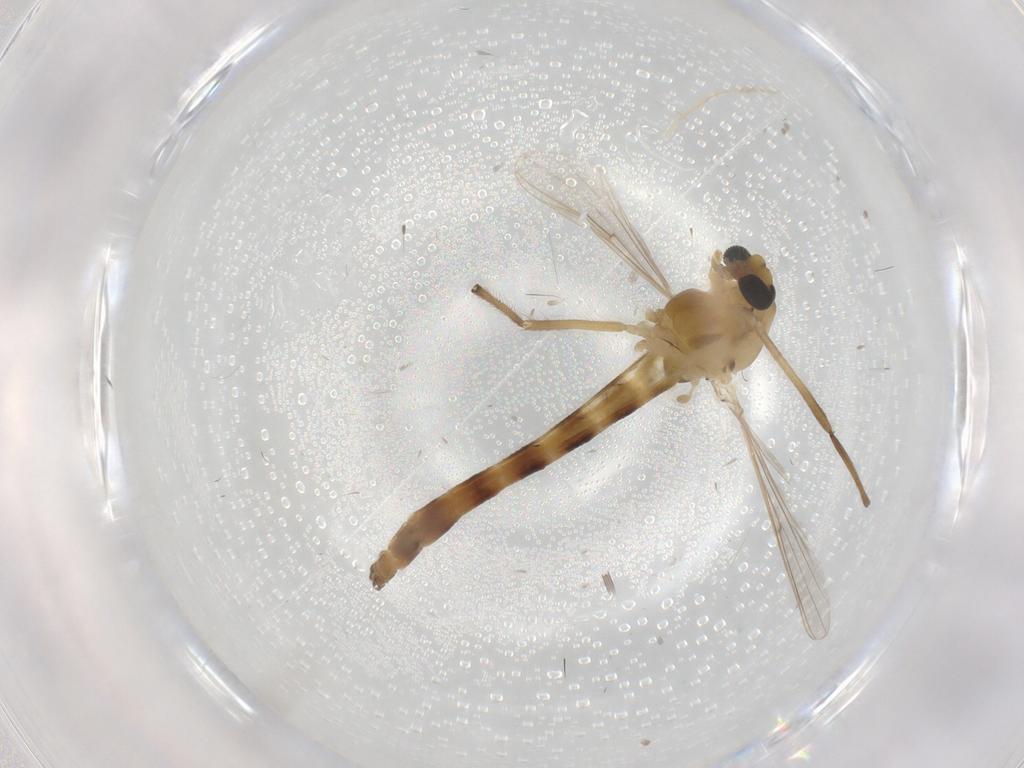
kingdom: Animalia
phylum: Arthropoda
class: Insecta
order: Diptera
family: Chironomidae
